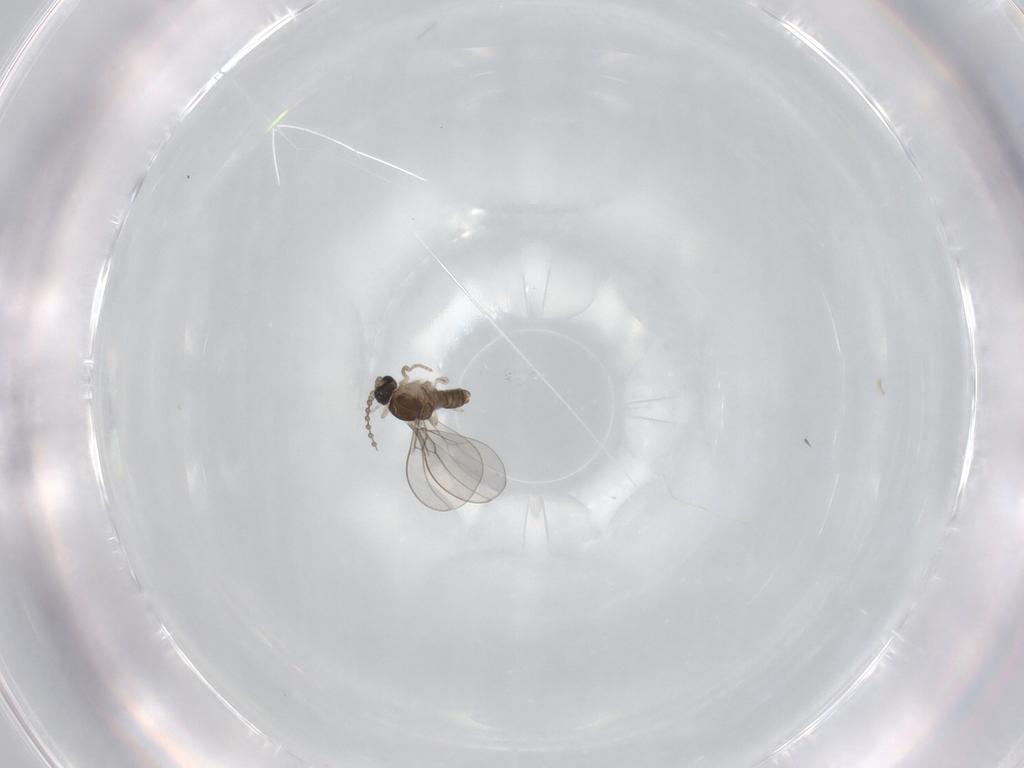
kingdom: Animalia
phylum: Arthropoda
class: Insecta
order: Diptera
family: Cecidomyiidae
